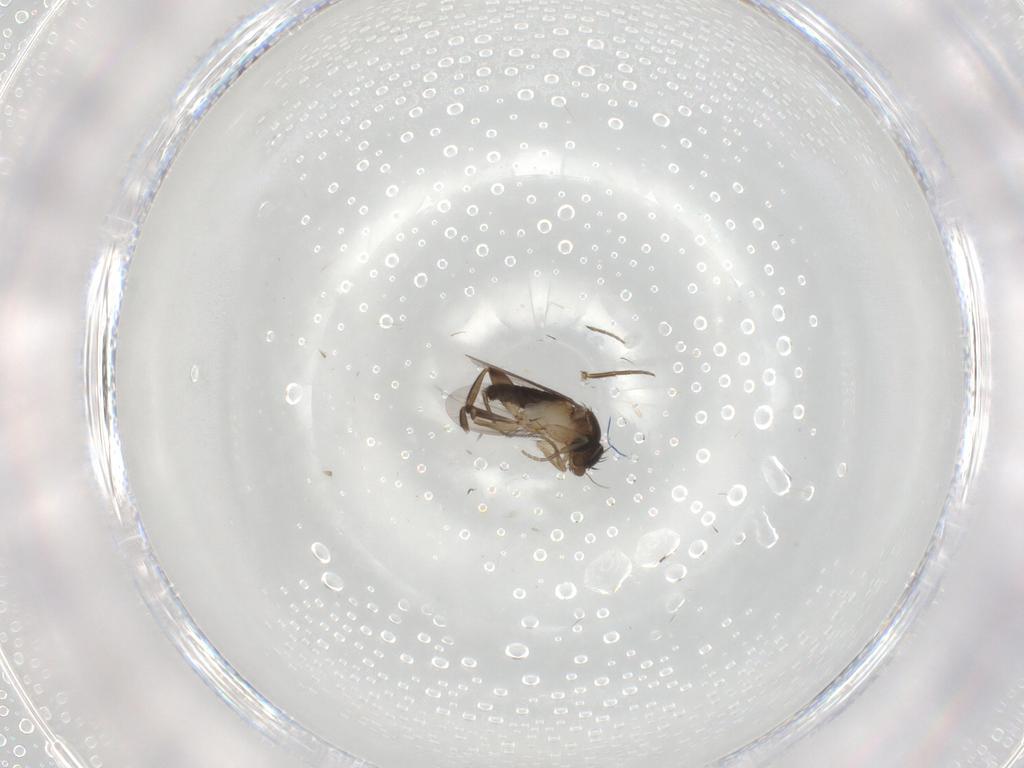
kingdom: Animalia
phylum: Arthropoda
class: Insecta
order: Diptera
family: Phoridae
